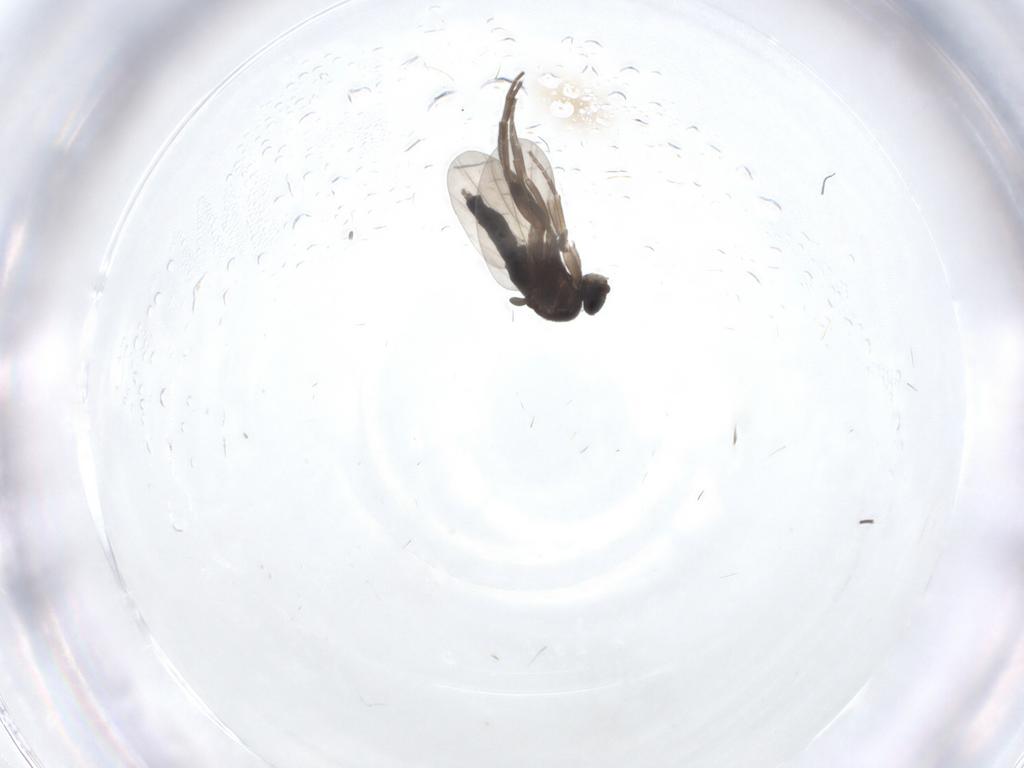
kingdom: Animalia
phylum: Arthropoda
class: Insecta
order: Diptera
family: Phoridae
